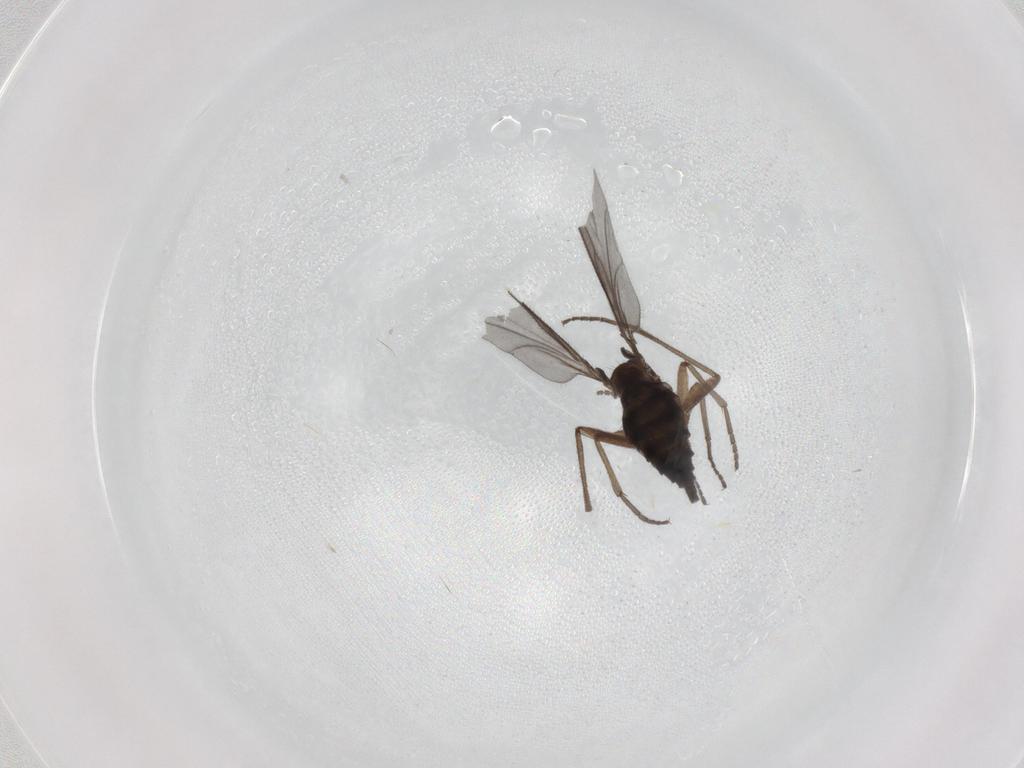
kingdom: Animalia
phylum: Arthropoda
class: Insecta
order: Diptera
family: Sciaridae
